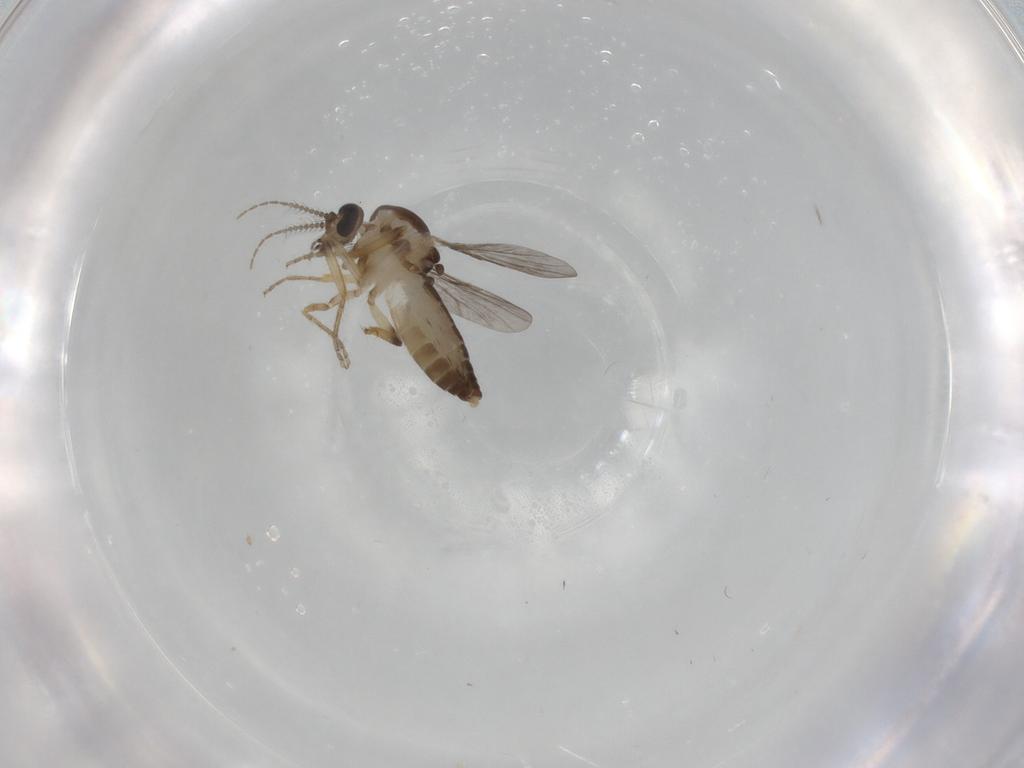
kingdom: Animalia
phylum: Arthropoda
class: Insecta
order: Diptera
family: Ceratopogonidae
